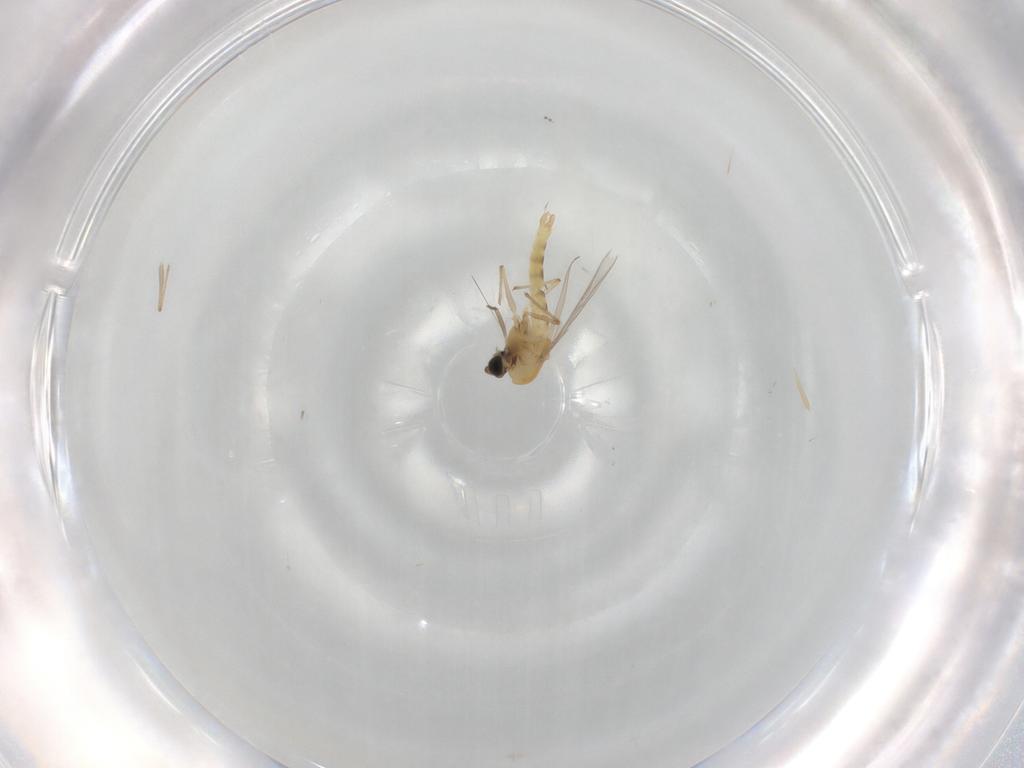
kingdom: Animalia
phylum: Arthropoda
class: Insecta
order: Diptera
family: Chironomidae
